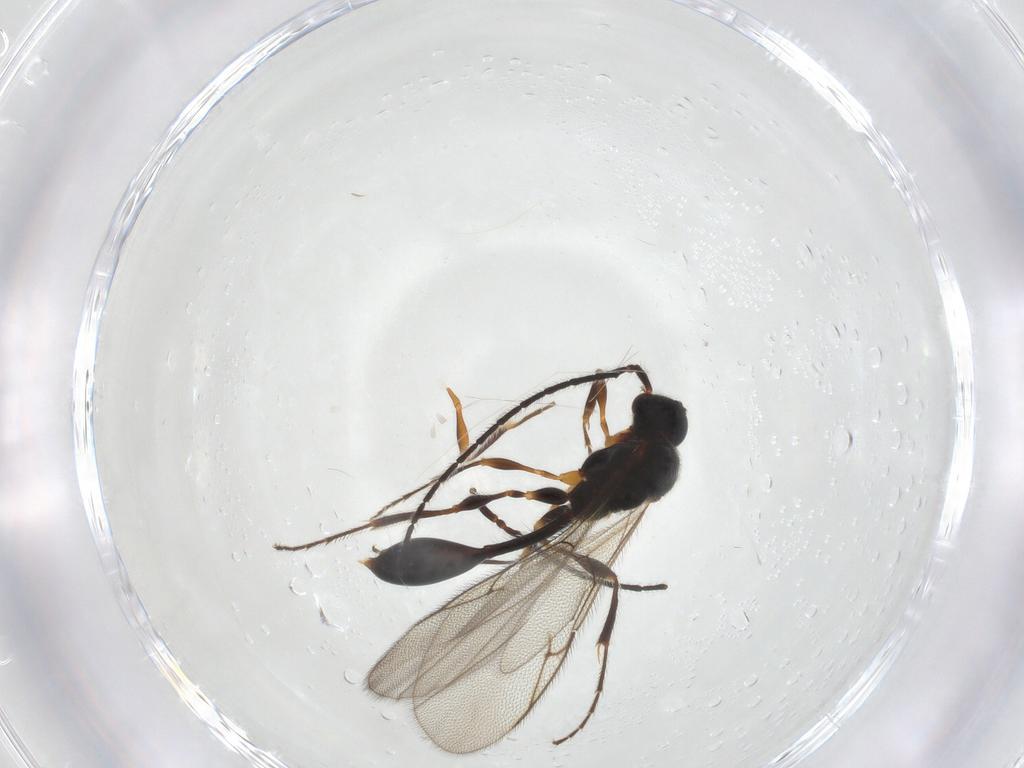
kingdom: Animalia
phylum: Arthropoda
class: Insecta
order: Hymenoptera
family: Diapriidae
